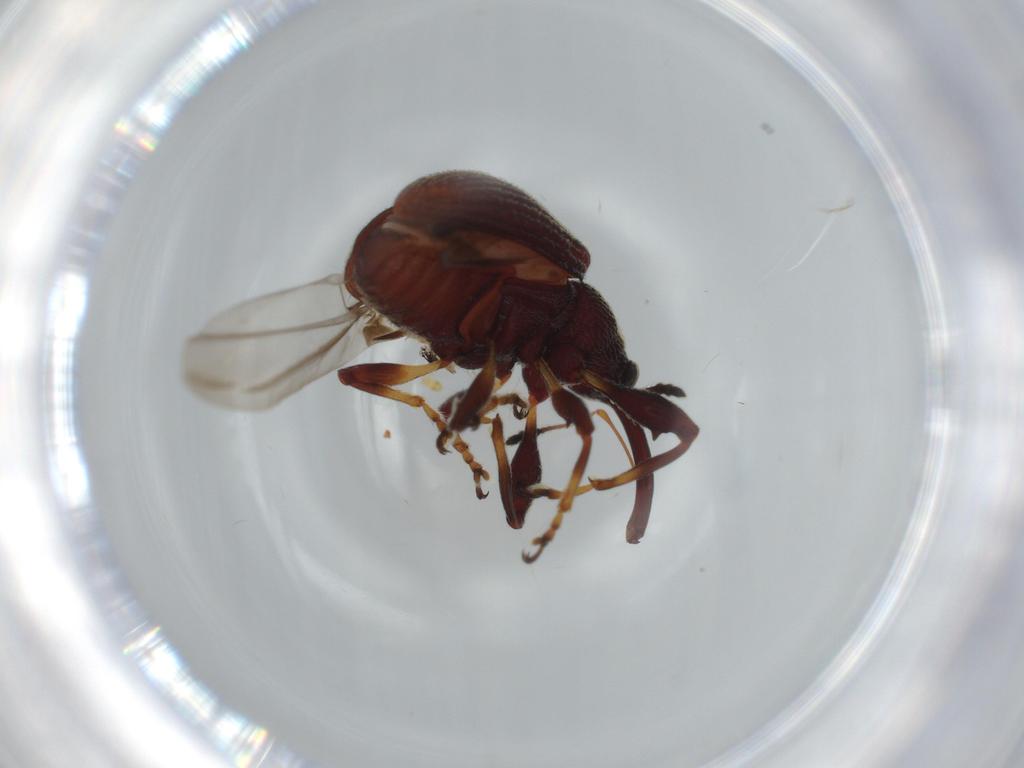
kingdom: Animalia
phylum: Arthropoda
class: Insecta
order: Coleoptera
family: Curculionidae
